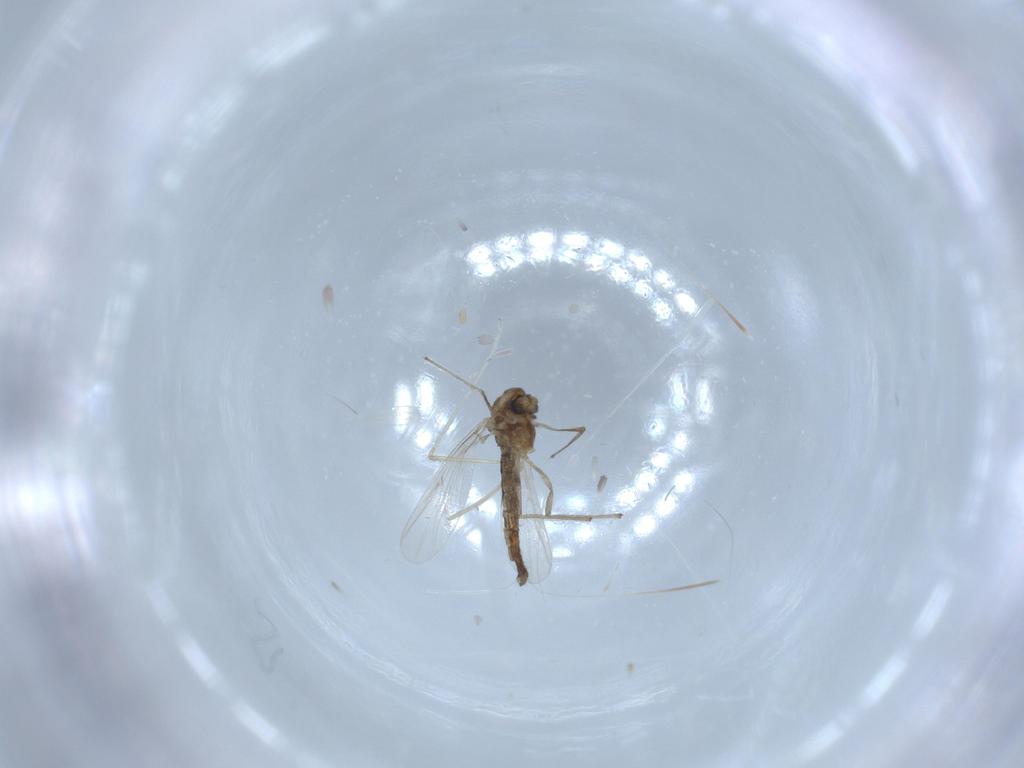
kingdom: Animalia
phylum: Arthropoda
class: Insecta
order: Diptera
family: Chironomidae
